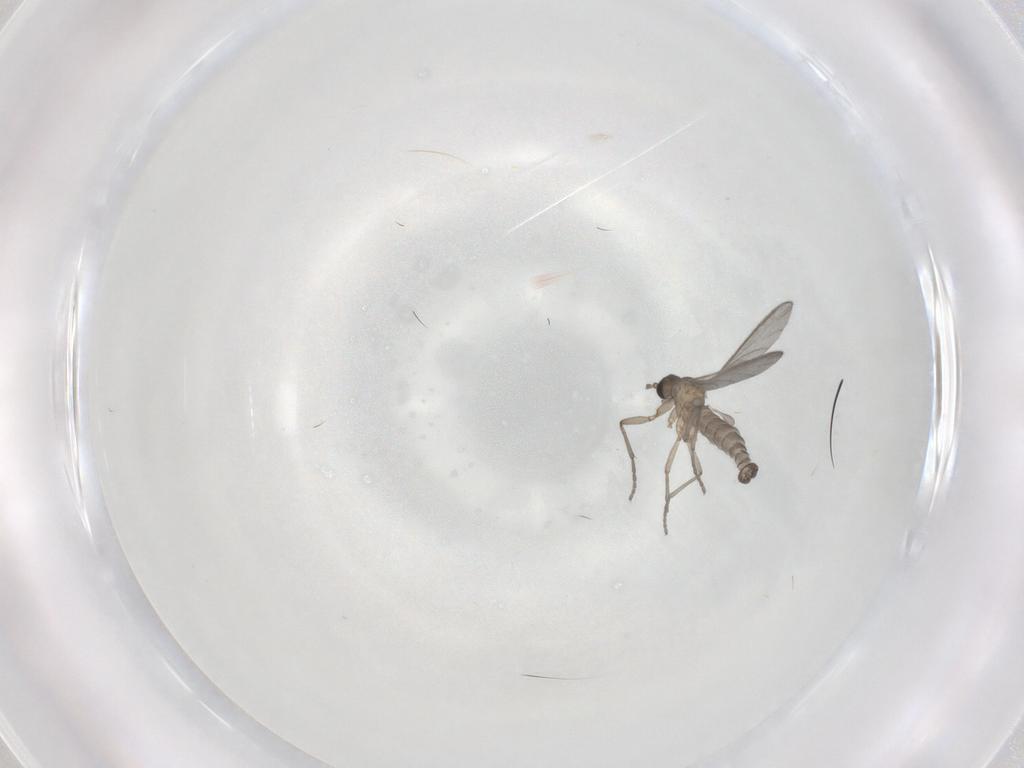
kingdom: Animalia
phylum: Arthropoda
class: Insecta
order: Diptera
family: Sciaridae
